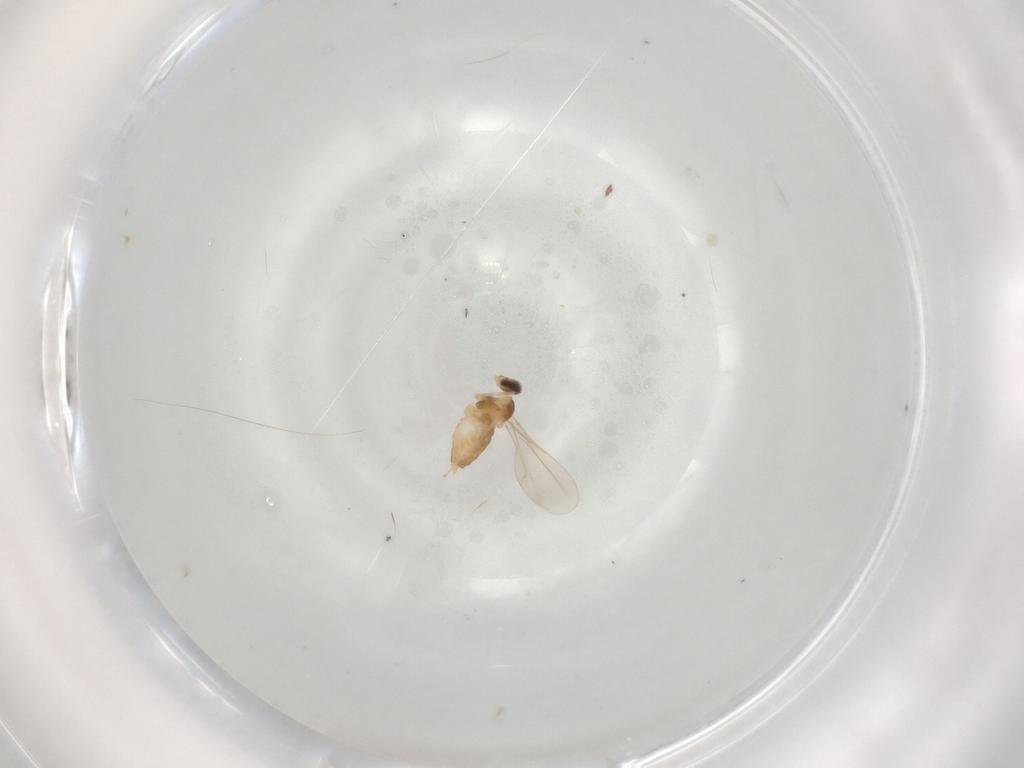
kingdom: Animalia
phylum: Arthropoda
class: Insecta
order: Diptera
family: Cecidomyiidae
